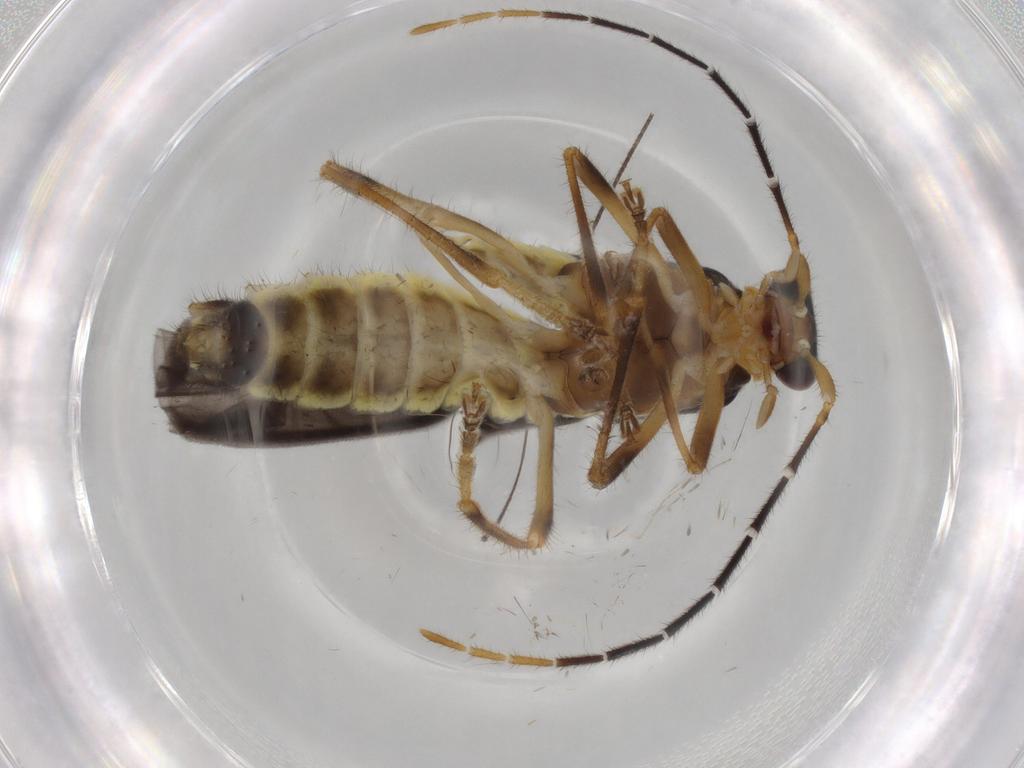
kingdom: Animalia
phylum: Arthropoda
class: Insecta
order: Coleoptera
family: Cantharidae
